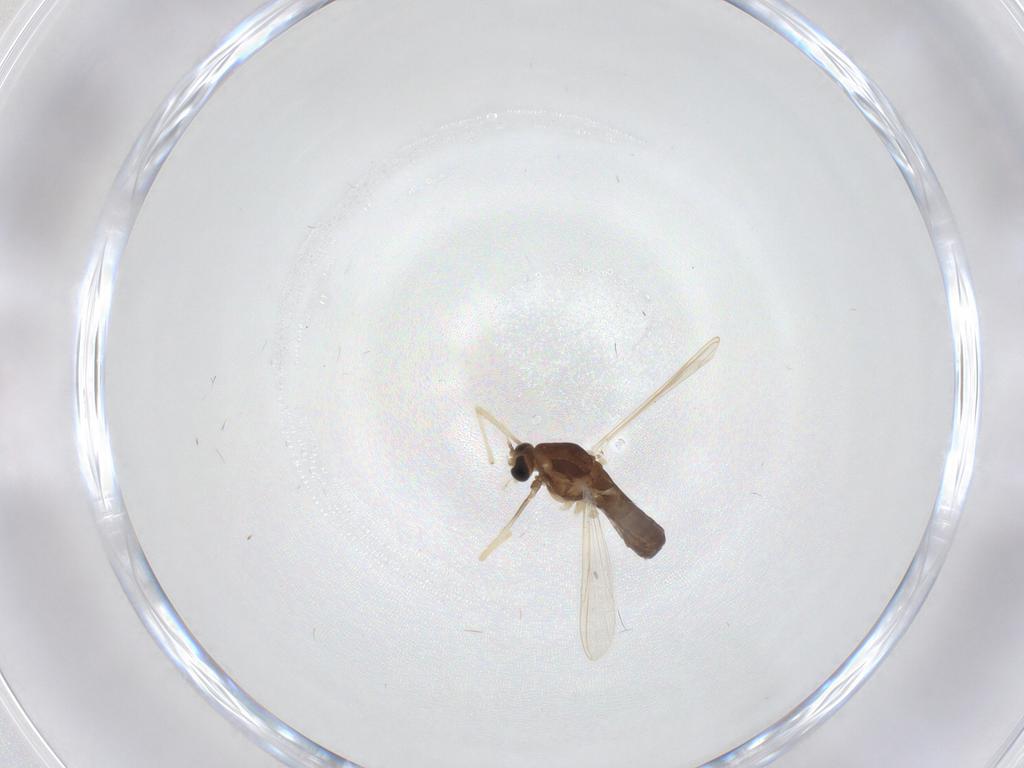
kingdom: Animalia
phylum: Arthropoda
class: Insecta
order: Diptera
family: Chironomidae
